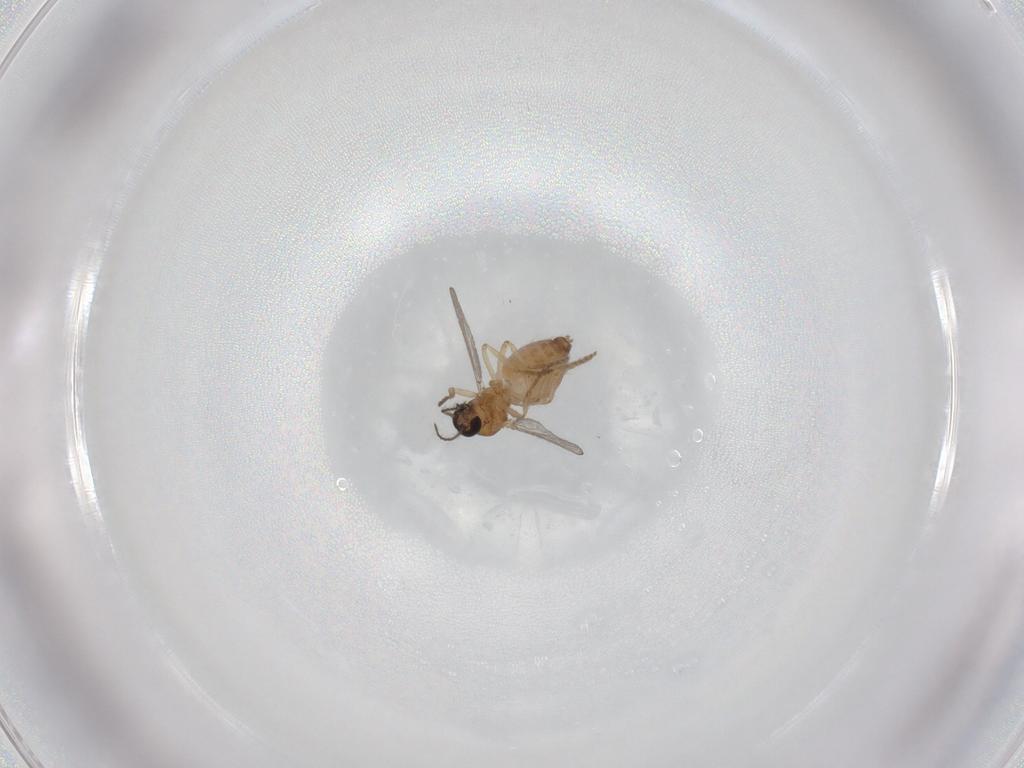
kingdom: Animalia
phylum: Arthropoda
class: Insecta
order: Diptera
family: Ceratopogonidae
